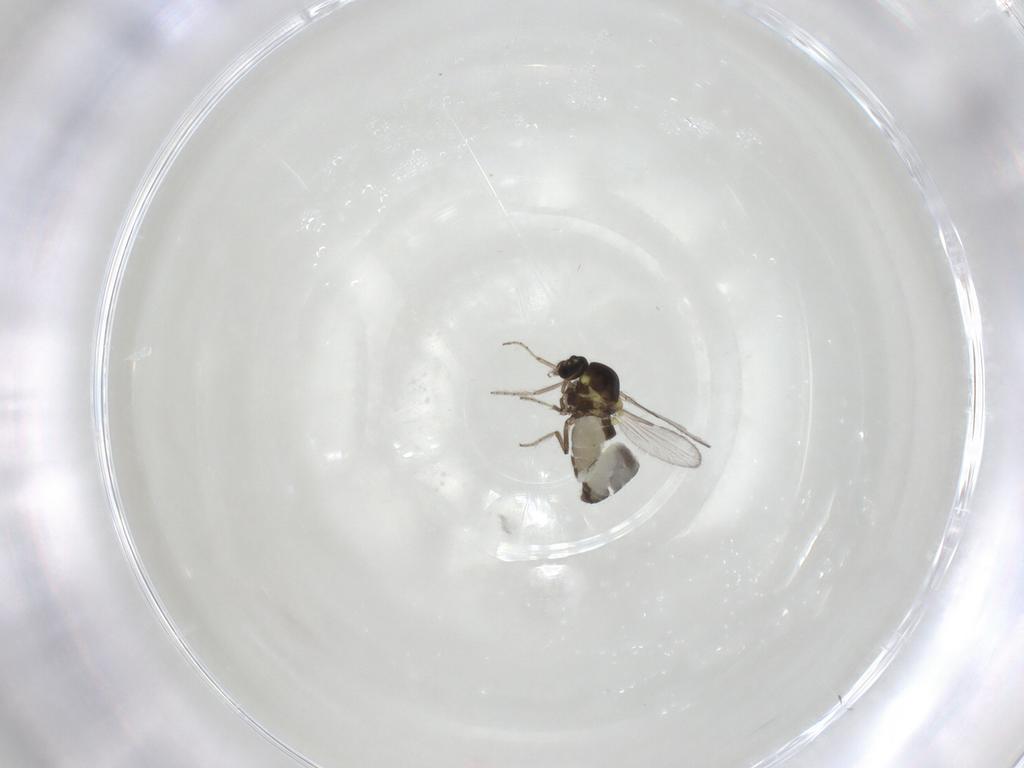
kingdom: Animalia
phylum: Arthropoda
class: Insecta
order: Diptera
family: Ceratopogonidae
